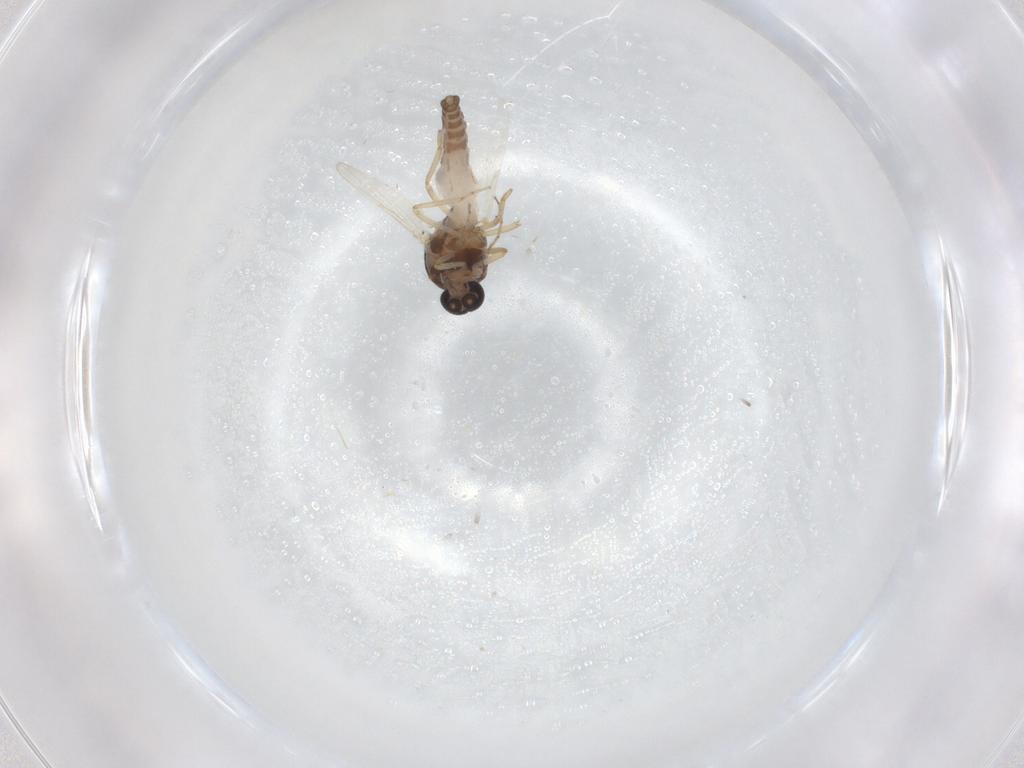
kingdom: Animalia
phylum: Arthropoda
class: Insecta
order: Diptera
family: Ceratopogonidae
